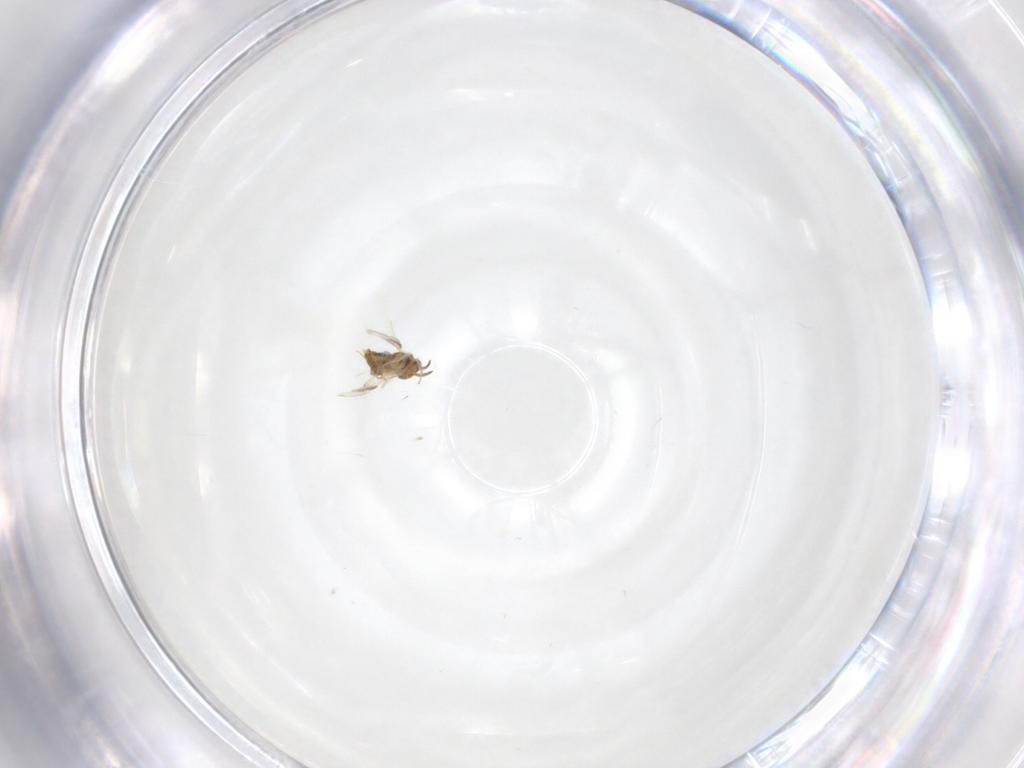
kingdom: Animalia
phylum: Arthropoda
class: Insecta
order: Hymenoptera
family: Aphelinidae
